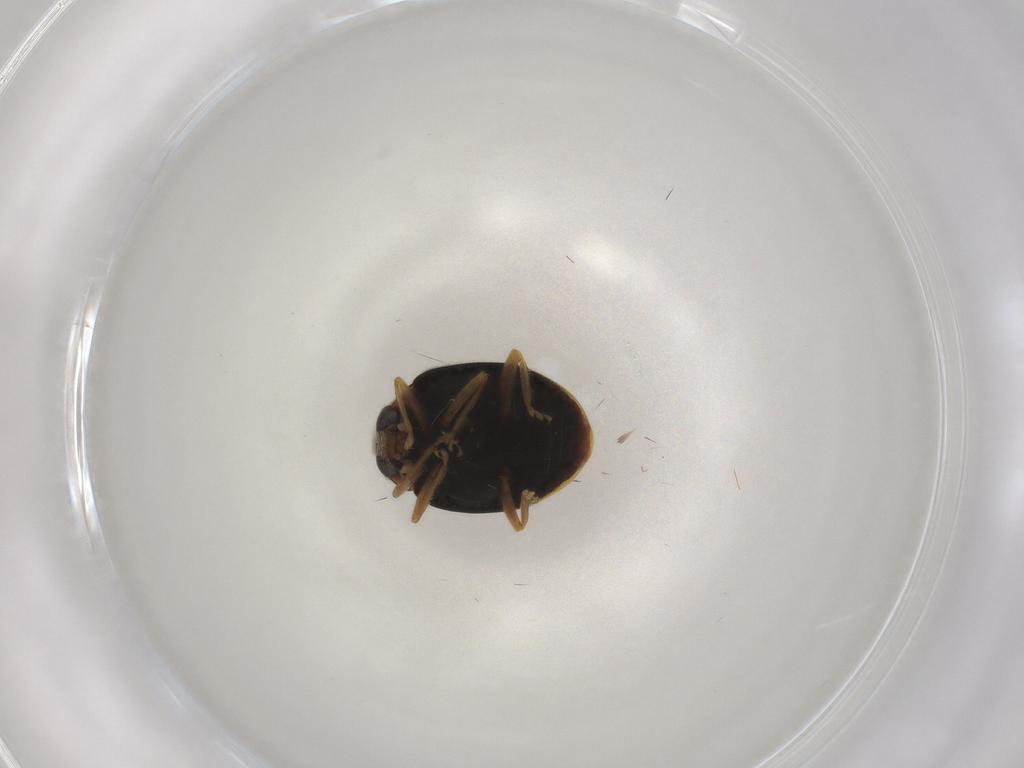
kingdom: Animalia
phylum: Arthropoda
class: Insecta
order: Coleoptera
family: Coccinellidae
